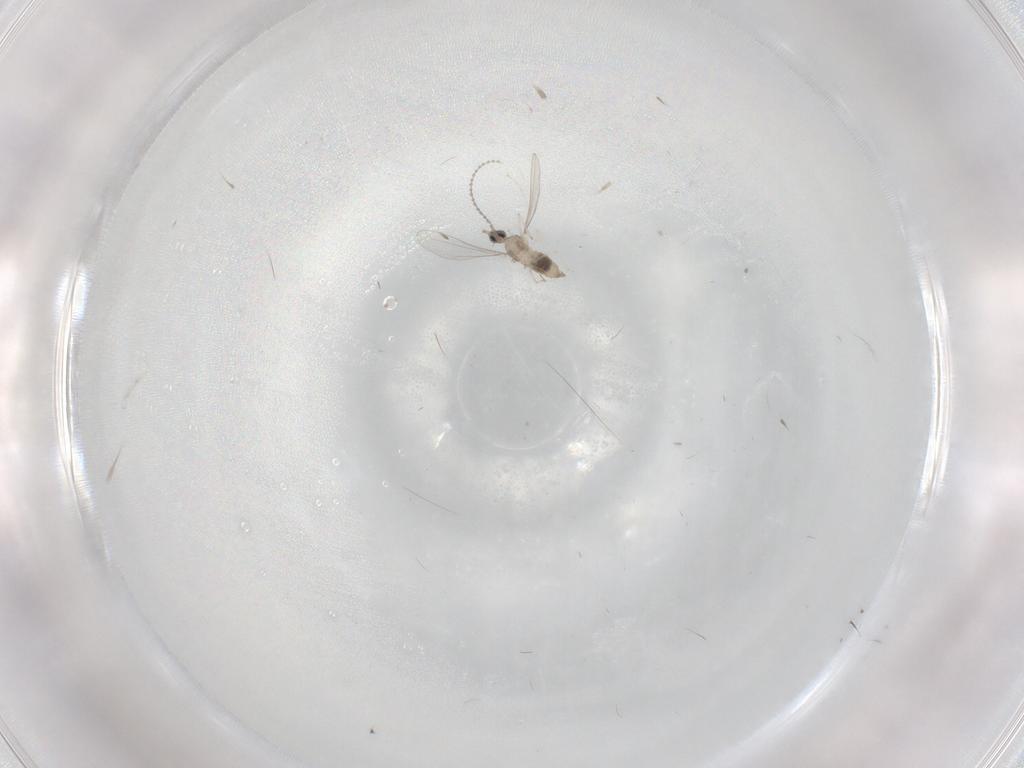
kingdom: Animalia
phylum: Arthropoda
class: Insecta
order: Diptera
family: Cecidomyiidae
